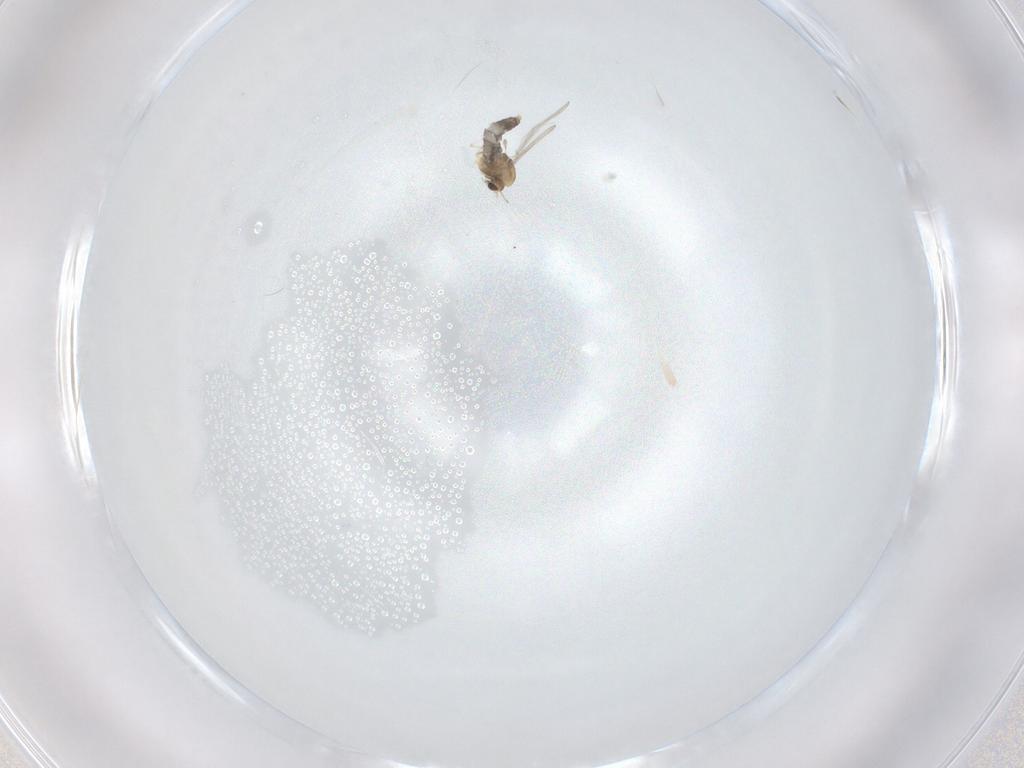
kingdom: Animalia
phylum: Arthropoda
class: Insecta
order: Diptera
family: Chironomidae
